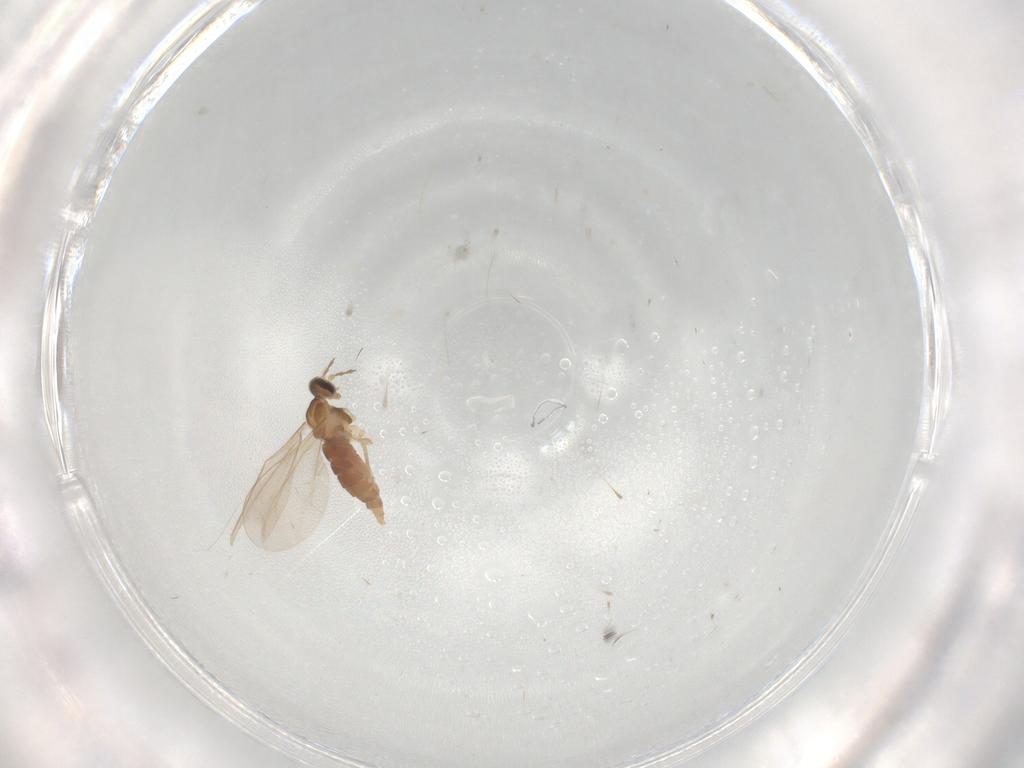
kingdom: Animalia
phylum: Arthropoda
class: Insecta
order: Diptera
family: Cecidomyiidae
